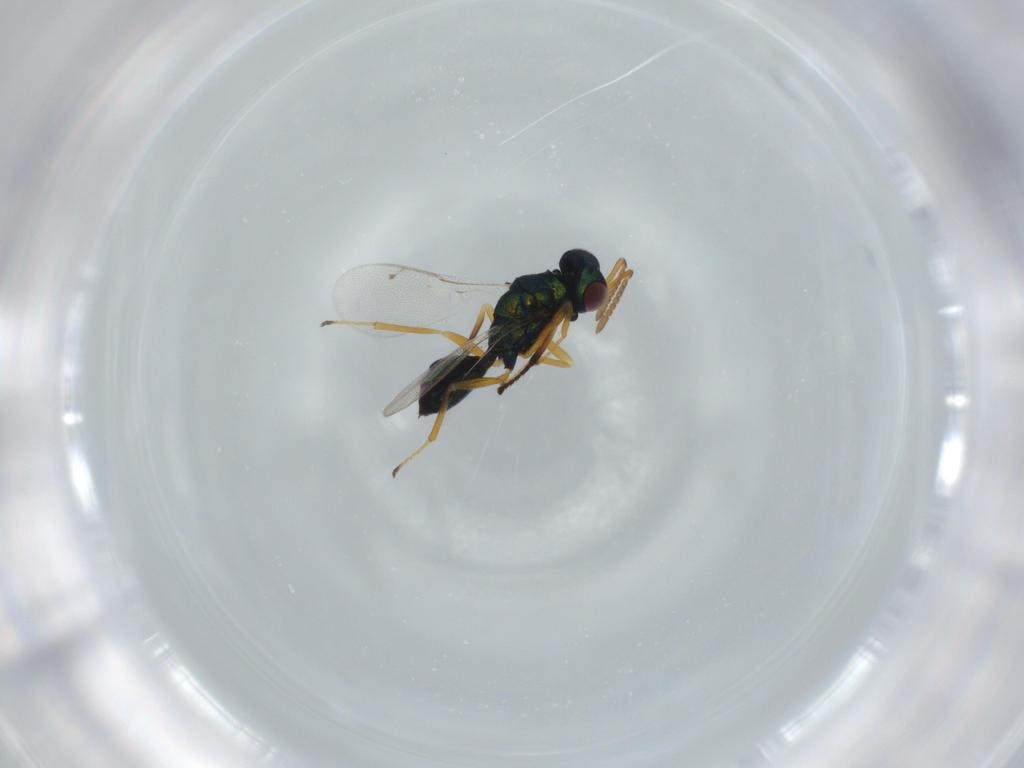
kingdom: Animalia
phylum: Arthropoda
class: Insecta
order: Hymenoptera
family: Pteromalidae
